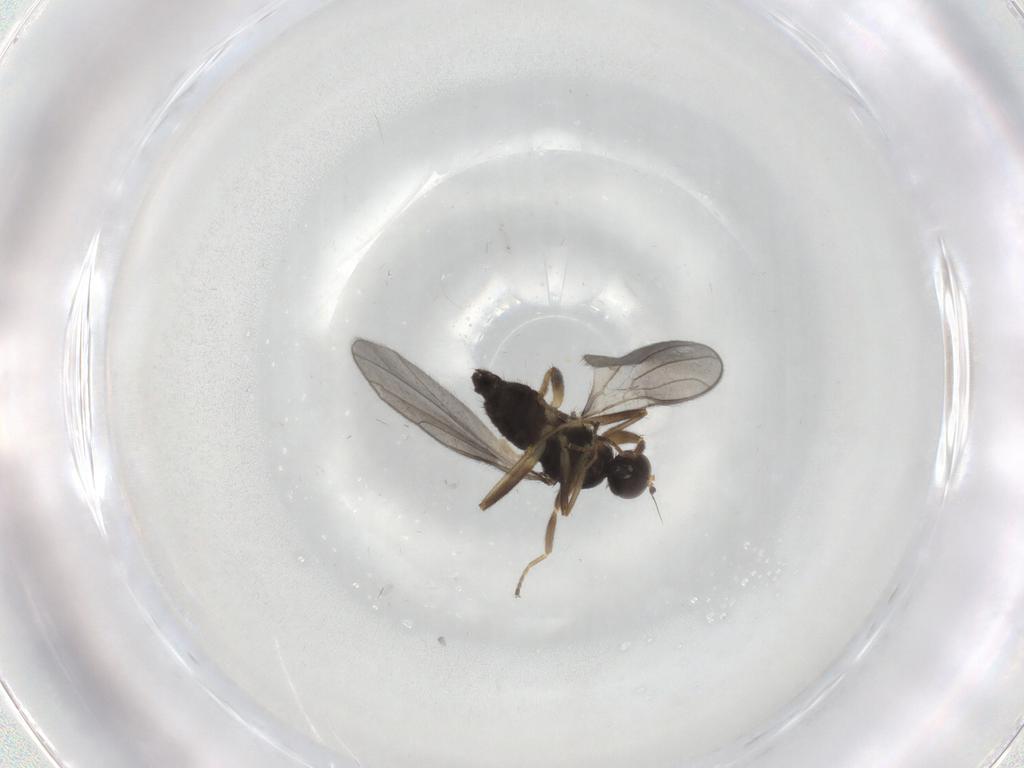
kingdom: Animalia
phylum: Arthropoda
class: Insecta
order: Diptera
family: Hybotidae
